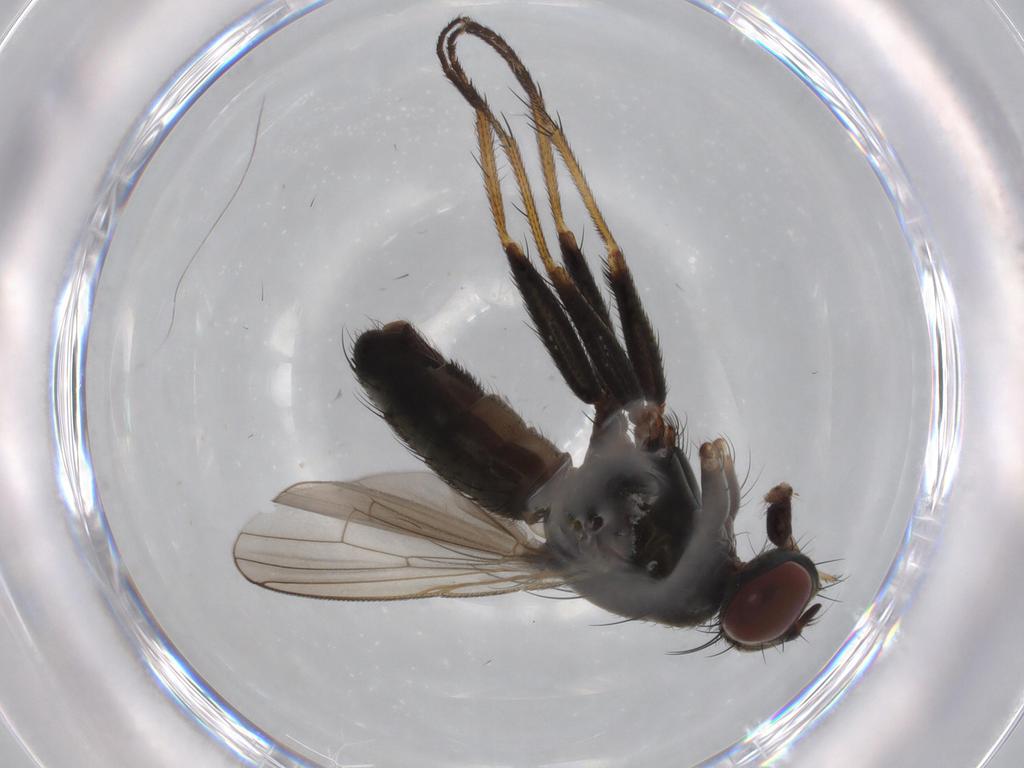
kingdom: Animalia
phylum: Arthropoda
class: Insecta
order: Diptera
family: Muscidae
